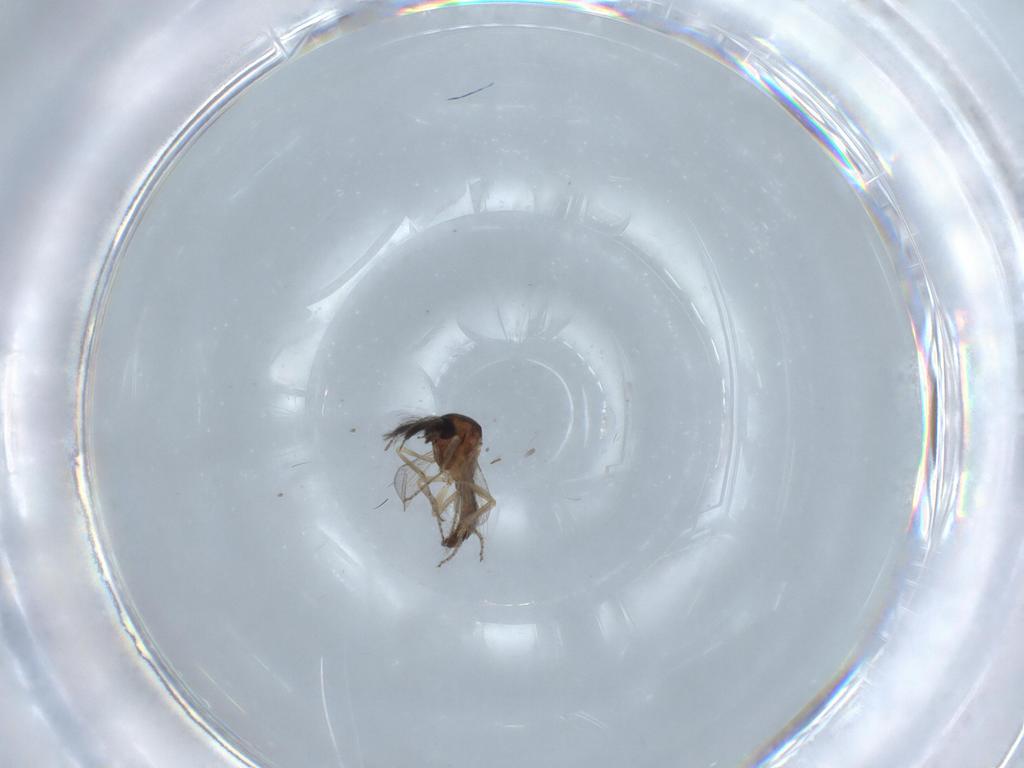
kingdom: Animalia
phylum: Arthropoda
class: Insecta
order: Diptera
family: Ceratopogonidae
